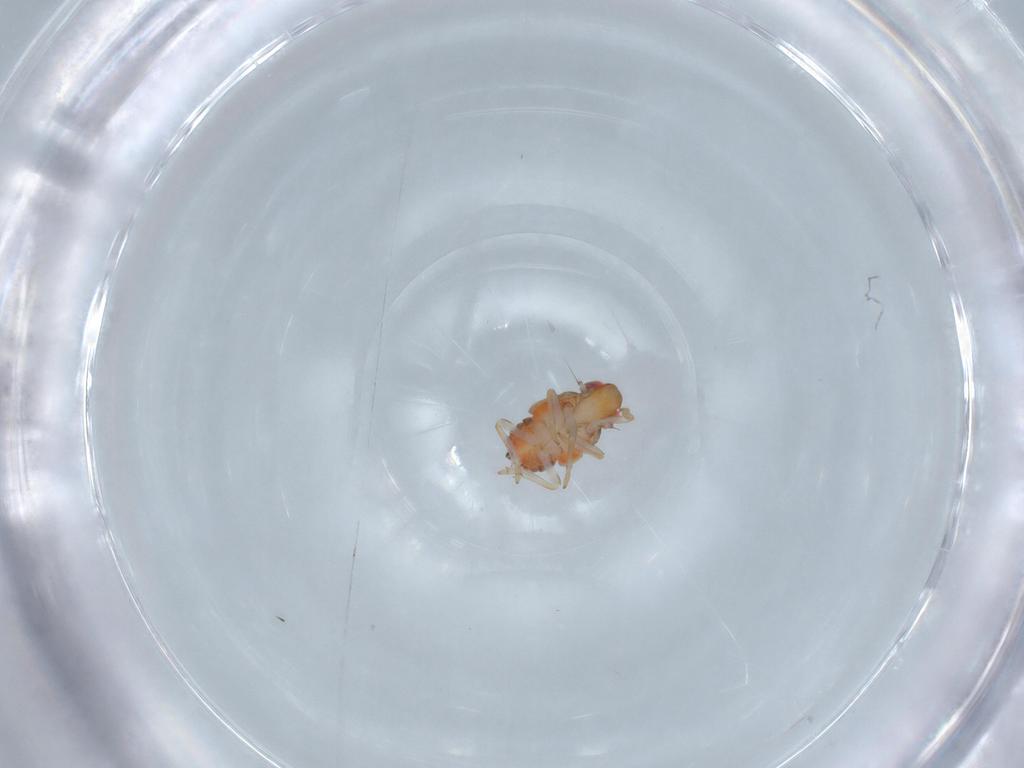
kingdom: Animalia
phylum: Arthropoda
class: Insecta
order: Hemiptera
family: Issidae
